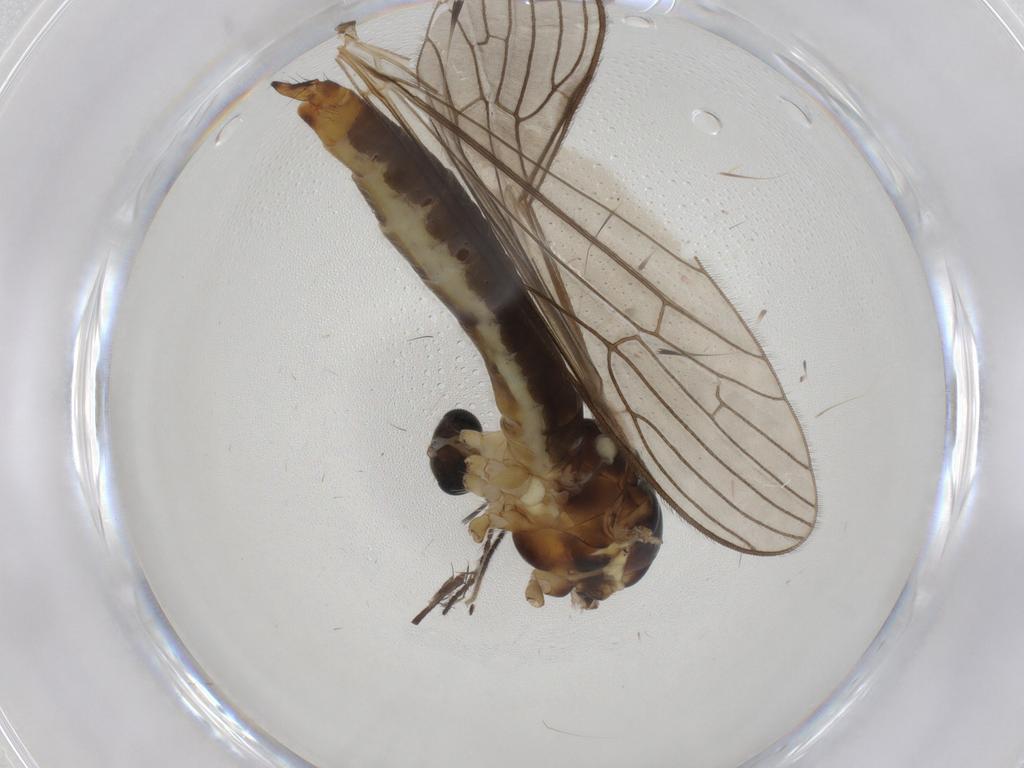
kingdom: Animalia
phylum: Arthropoda
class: Insecta
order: Diptera
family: Limoniidae
